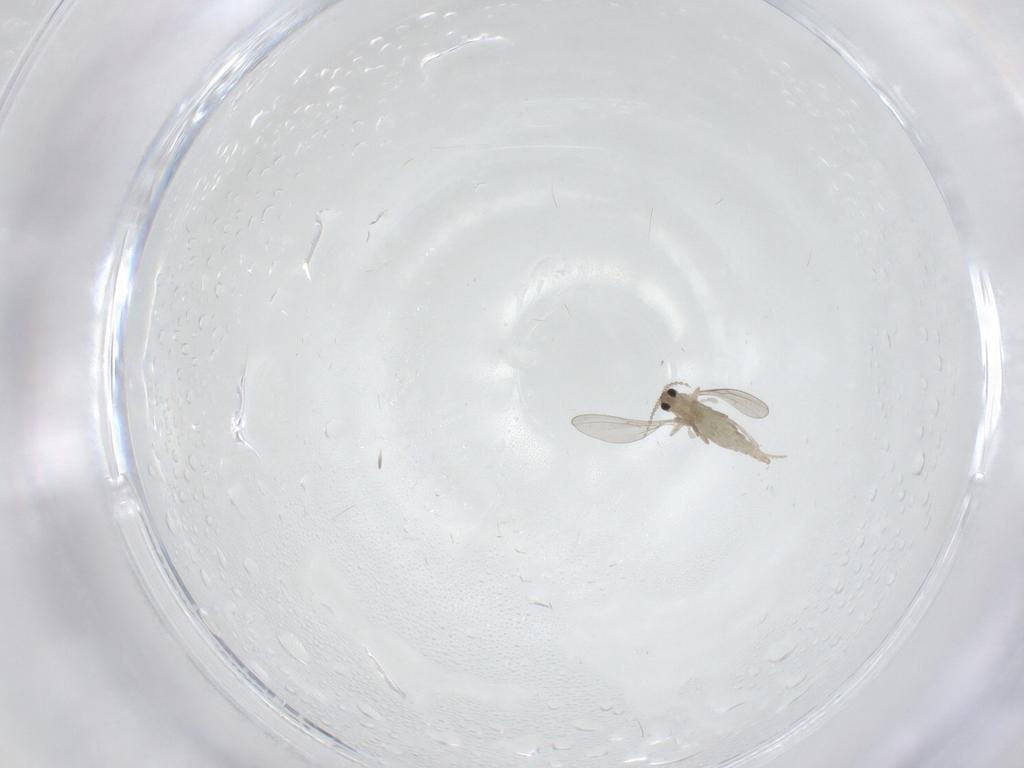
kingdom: Animalia
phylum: Arthropoda
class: Insecta
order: Diptera
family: Cecidomyiidae
